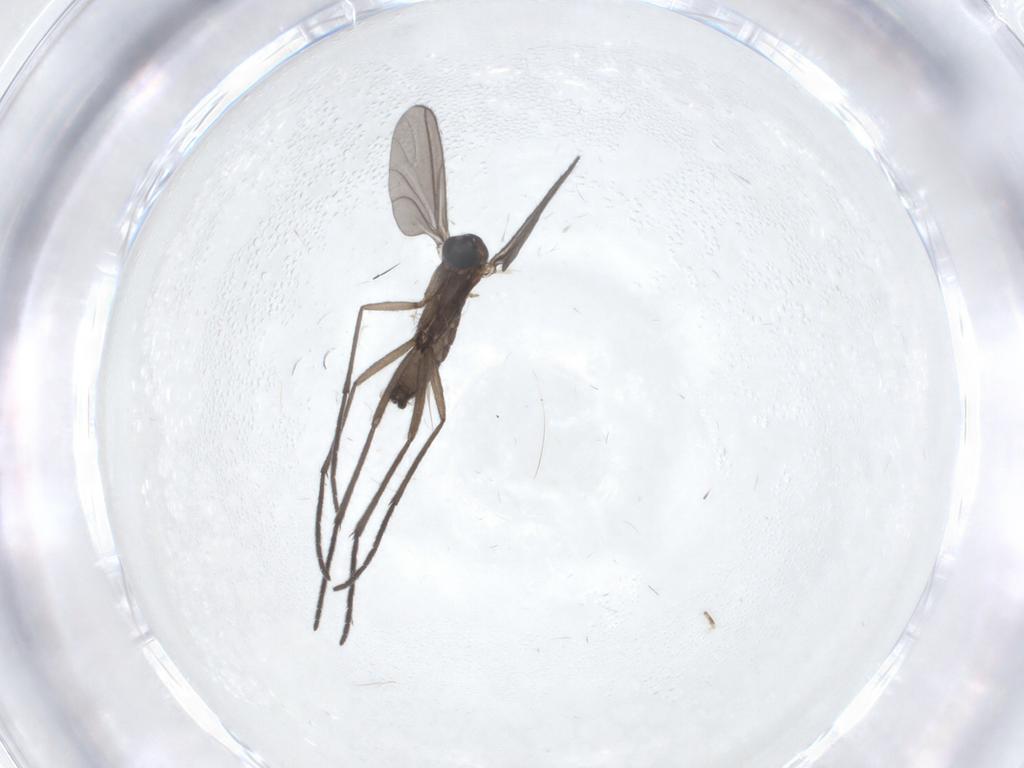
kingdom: Animalia
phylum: Arthropoda
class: Insecta
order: Diptera
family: Sciaridae
